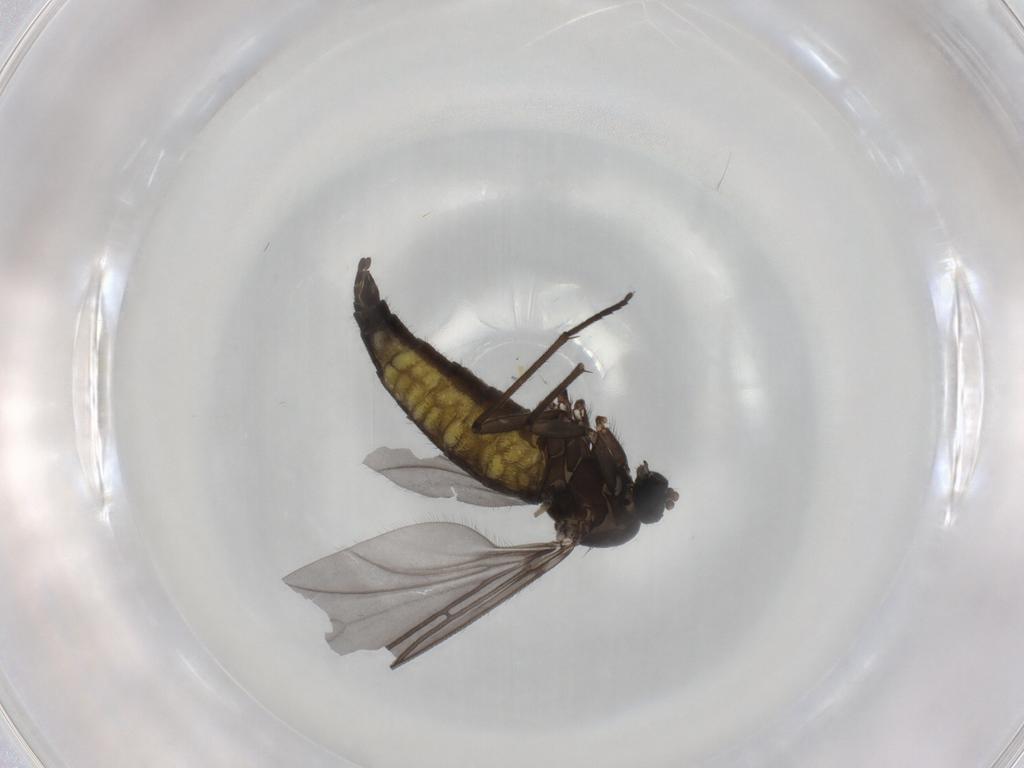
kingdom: Animalia
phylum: Arthropoda
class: Insecta
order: Diptera
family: Sciaridae
